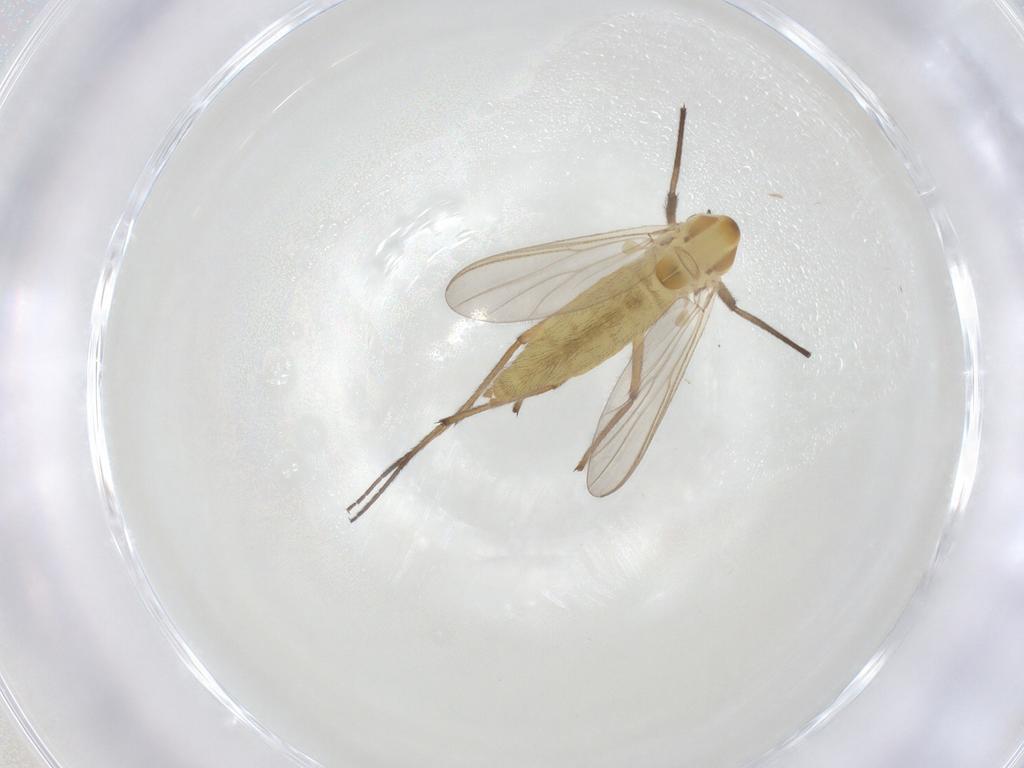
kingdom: Animalia
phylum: Arthropoda
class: Insecta
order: Diptera
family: Chironomidae
